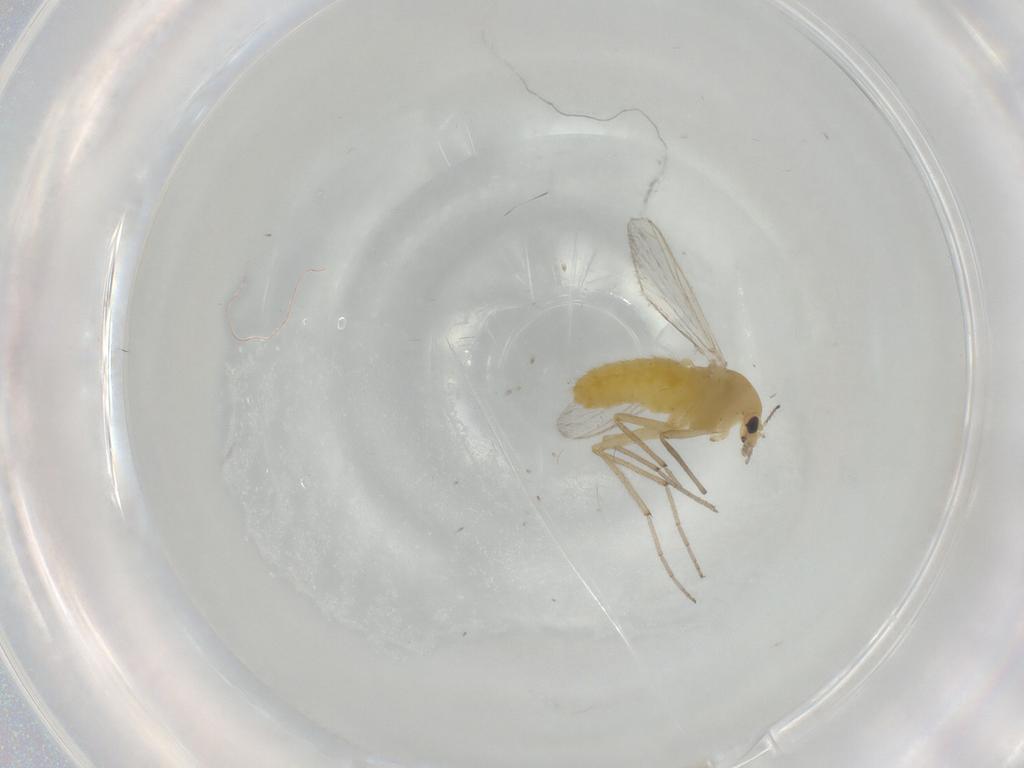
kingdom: Animalia
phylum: Arthropoda
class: Insecta
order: Diptera
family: Chironomidae
